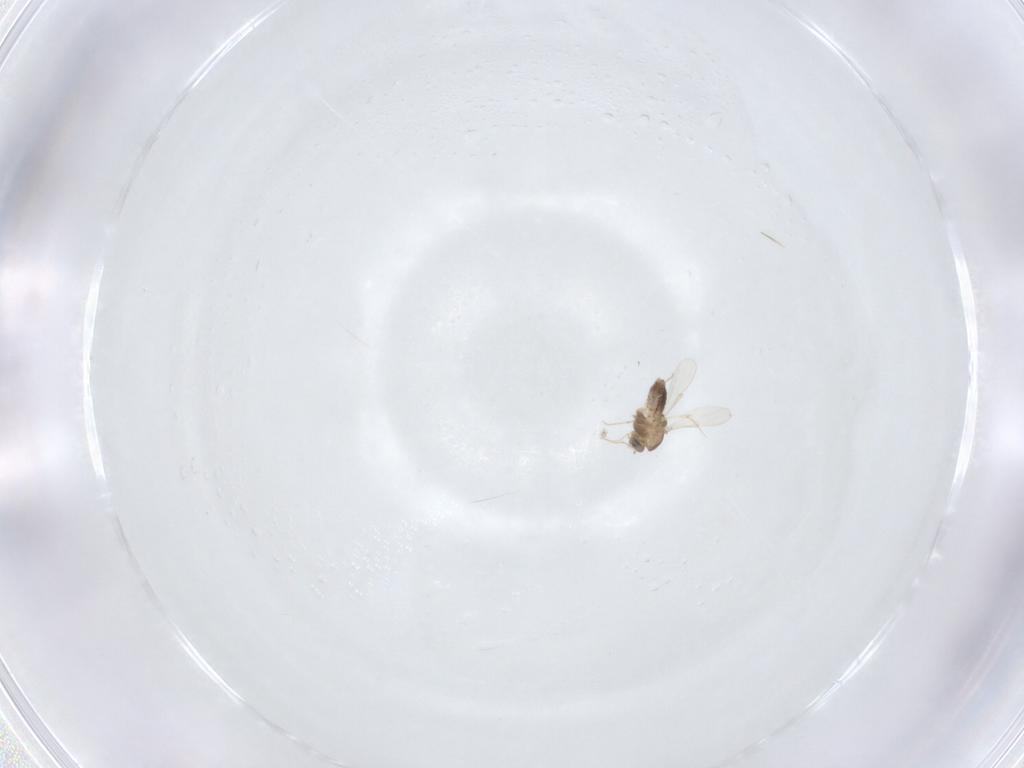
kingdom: Animalia
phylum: Arthropoda
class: Insecta
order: Diptera
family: Chironomidae
